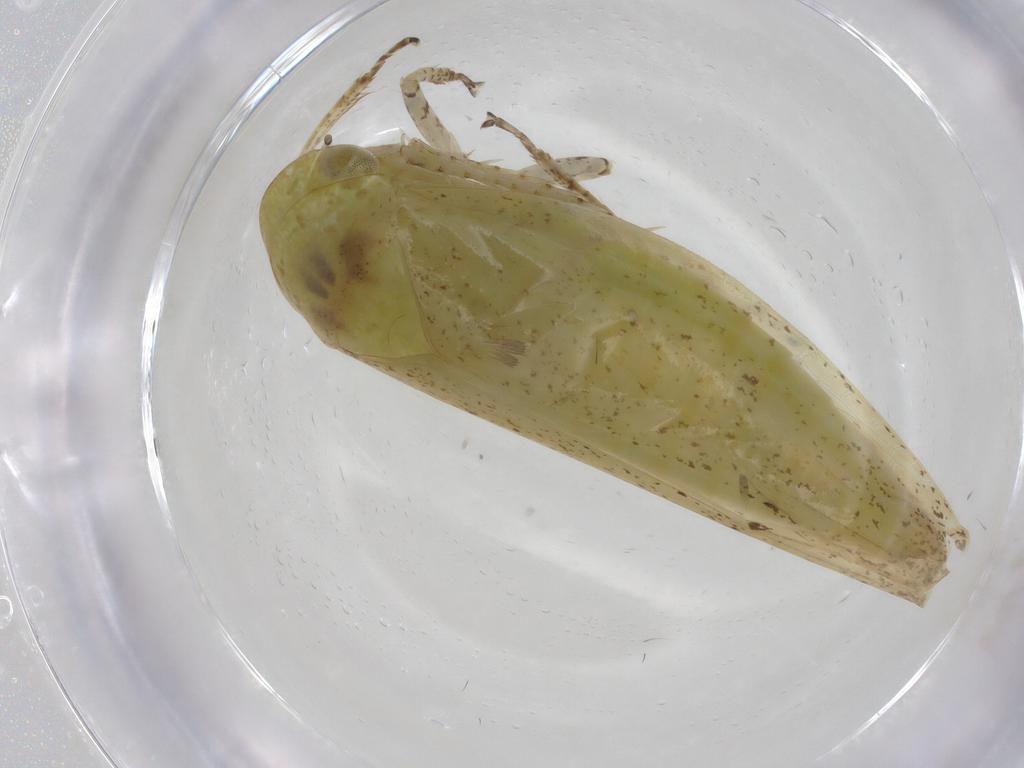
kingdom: Animalia
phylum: Arthropoda
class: Insecta
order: Hemiptera
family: Cicadellidae
